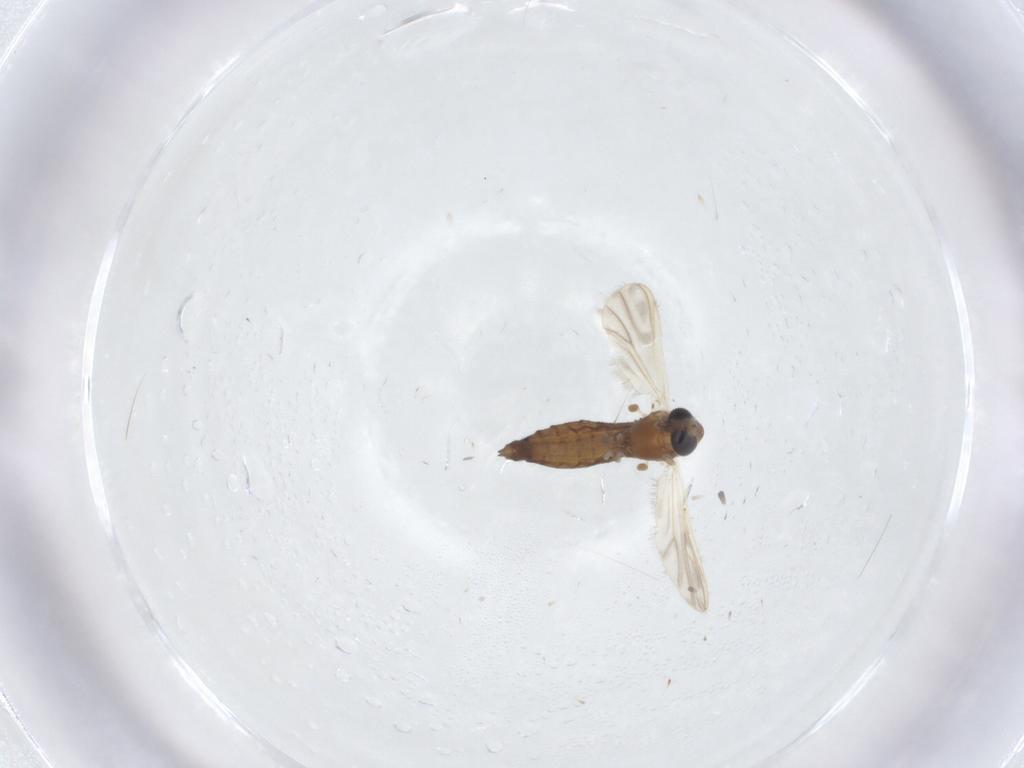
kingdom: Animalia
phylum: Arthropoda
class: Insecta
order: Diptera
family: Chironomidae
